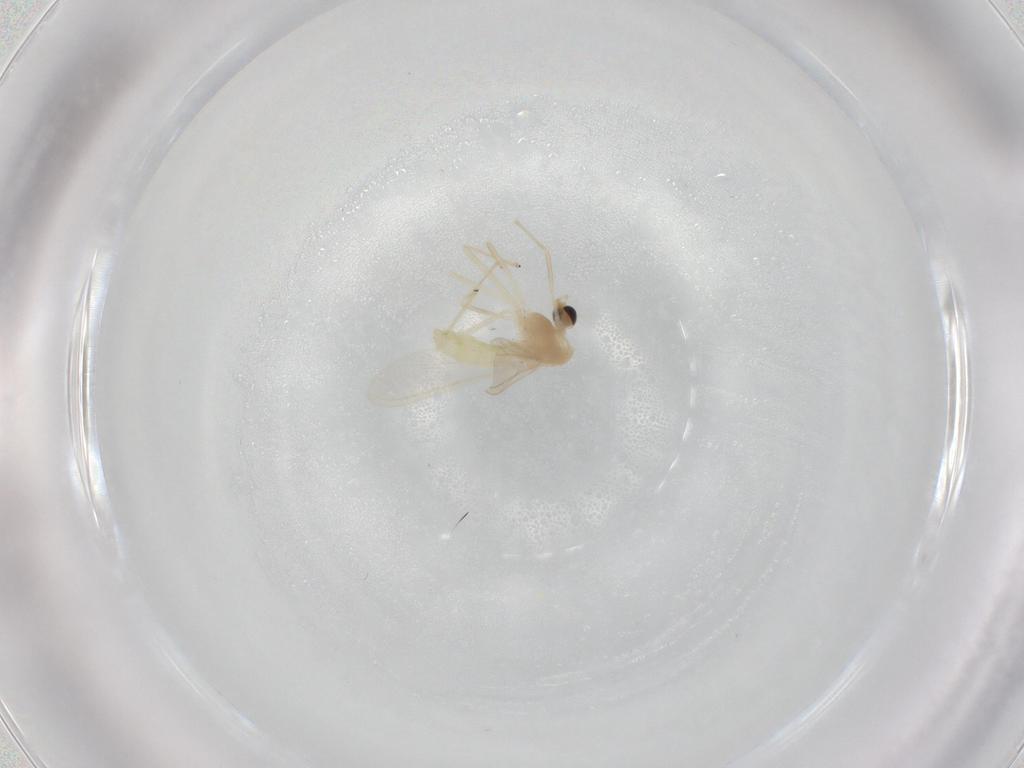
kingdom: Animalia
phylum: Arthropoda
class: Insecta
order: Diptera
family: Chironomidae
